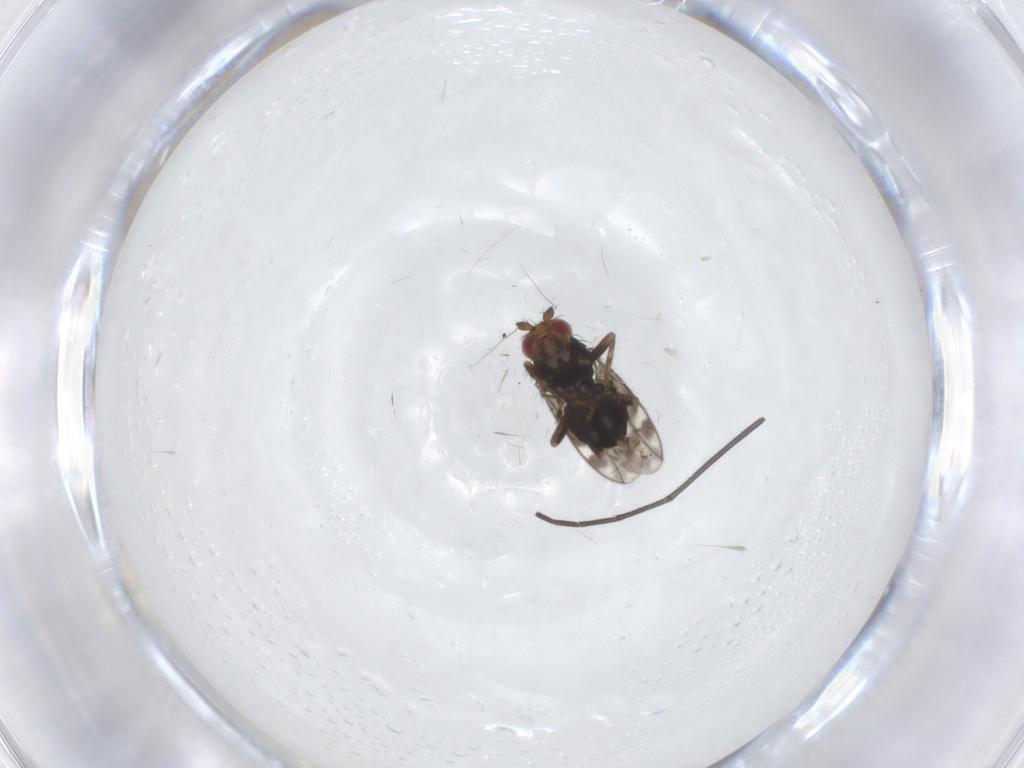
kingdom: Animalia
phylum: Arthropoda
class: Insecta
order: Diptera
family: Sphaeroceridae
